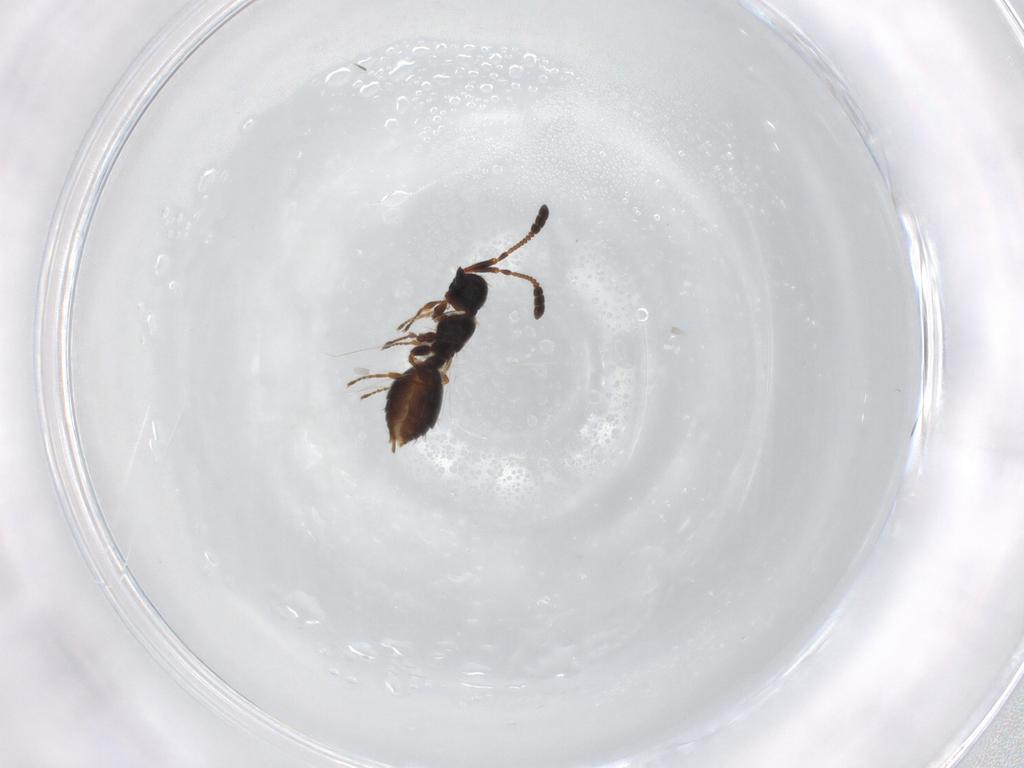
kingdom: Animalia
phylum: Arthropoda
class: Insecta
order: Hymenoptera
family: Diapriidae
